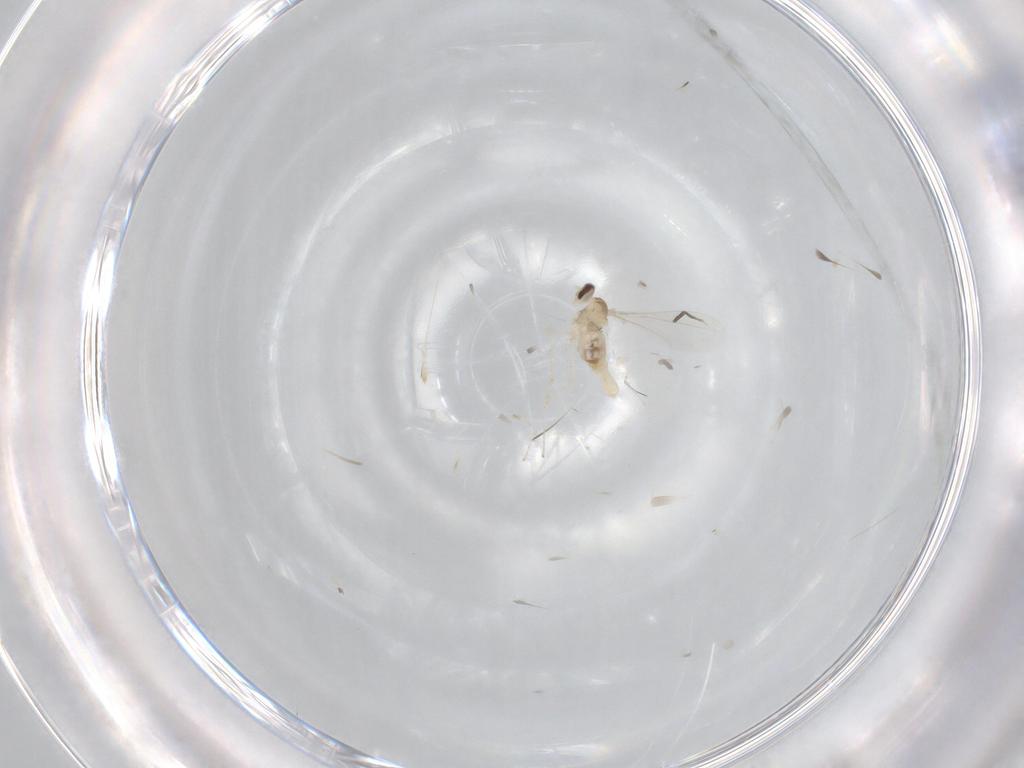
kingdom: Animalia
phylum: Arthropoda
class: Insecta
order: Diptera
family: Cecidomyiidae
